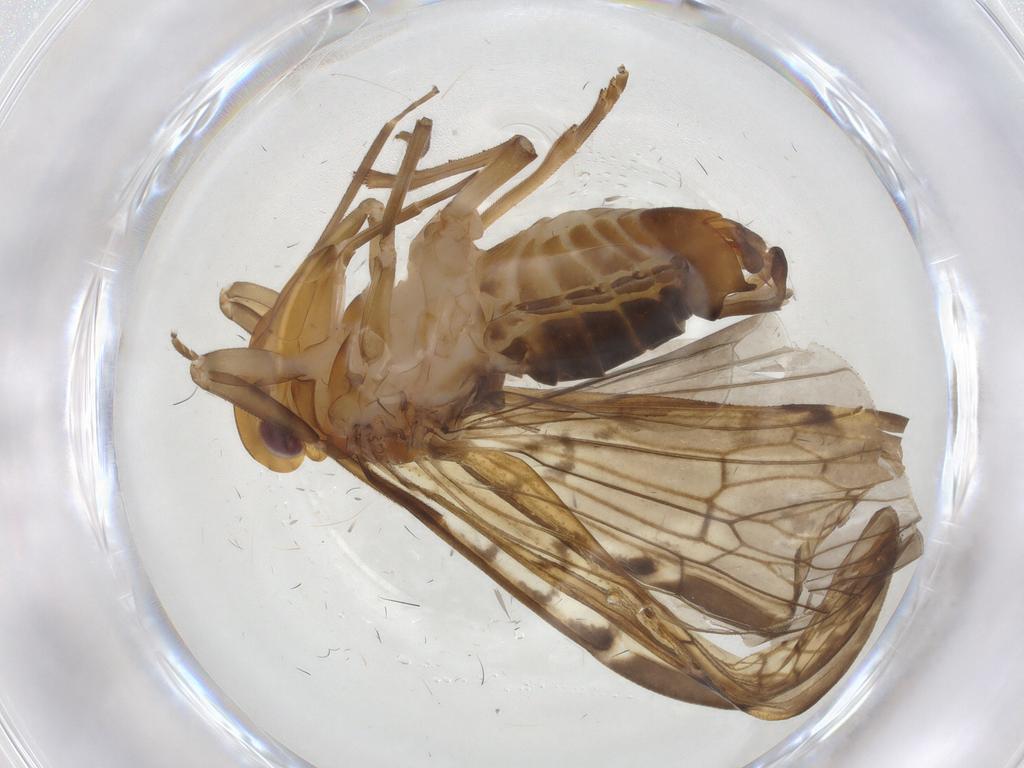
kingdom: Animalia
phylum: Arthropoda
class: Insecta
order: Hemiptera
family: Cixiidae
